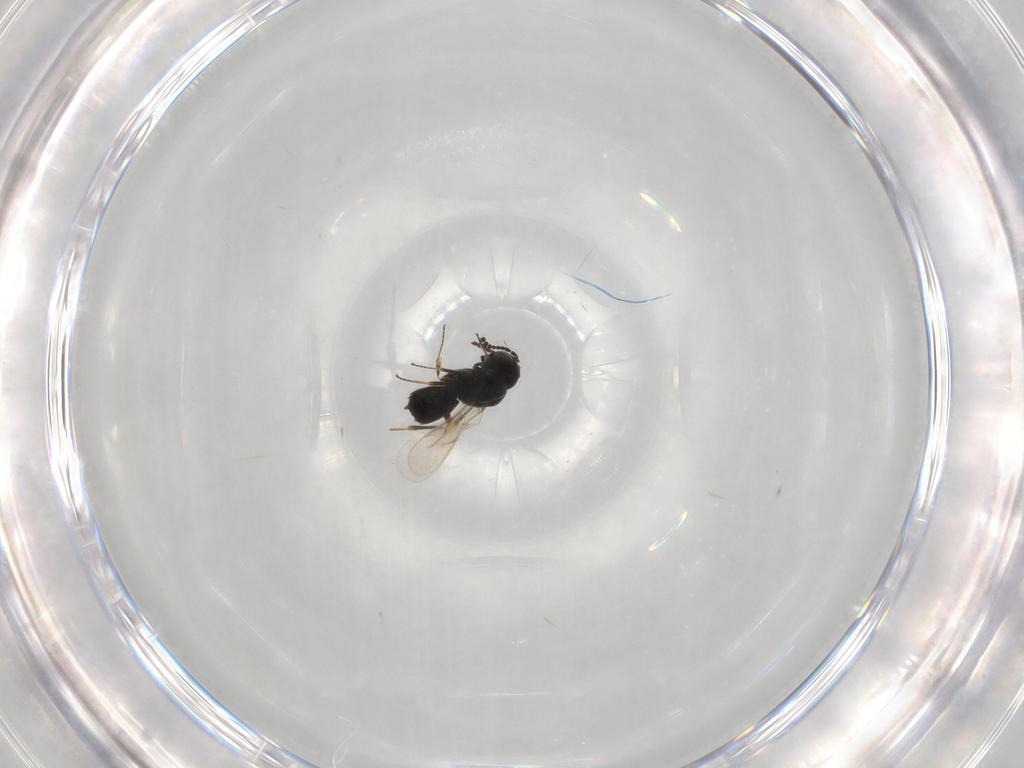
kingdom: Animalia
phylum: Arthropoda
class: Insecta
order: Hymenoptera
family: Scelionidae
